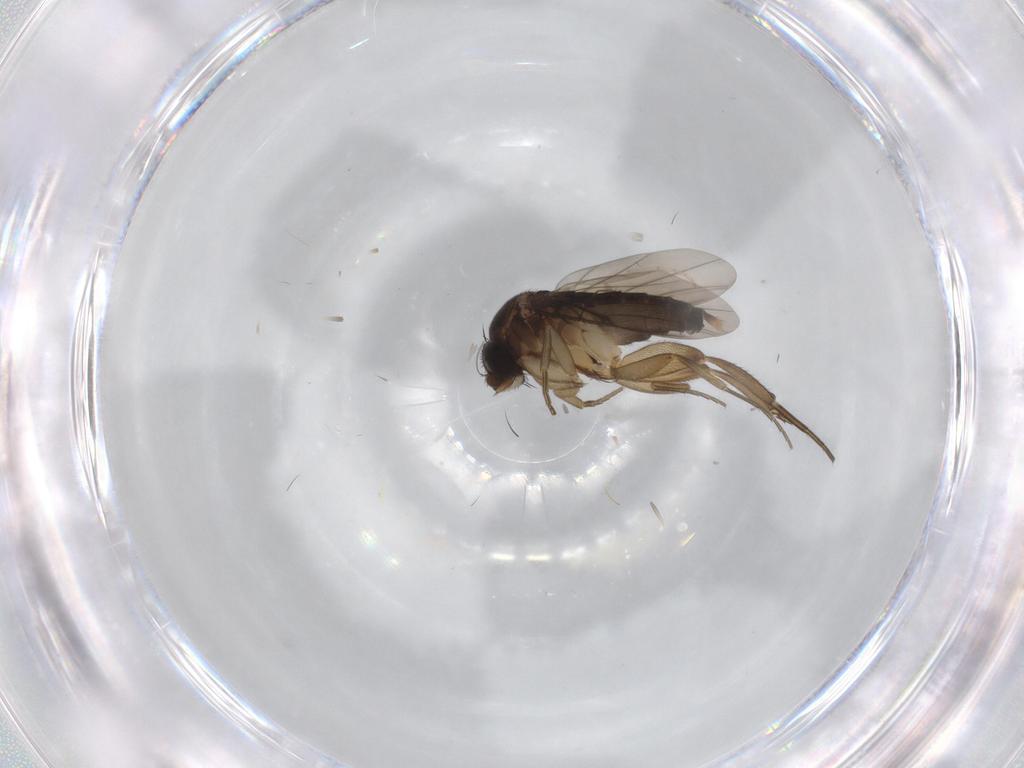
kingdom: Animalia
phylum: Arthropoda
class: Insecta
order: Diptera
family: Phoridae
